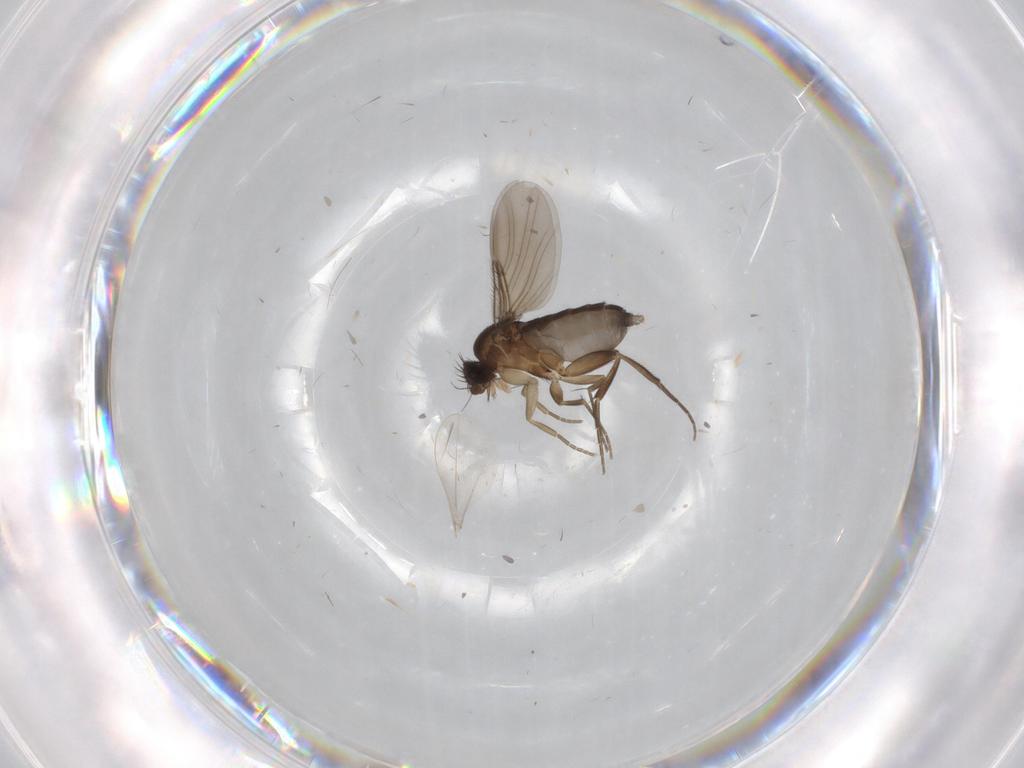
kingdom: Animalia
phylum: Arthropoda
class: Insecta
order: Diptera
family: Phoridae
